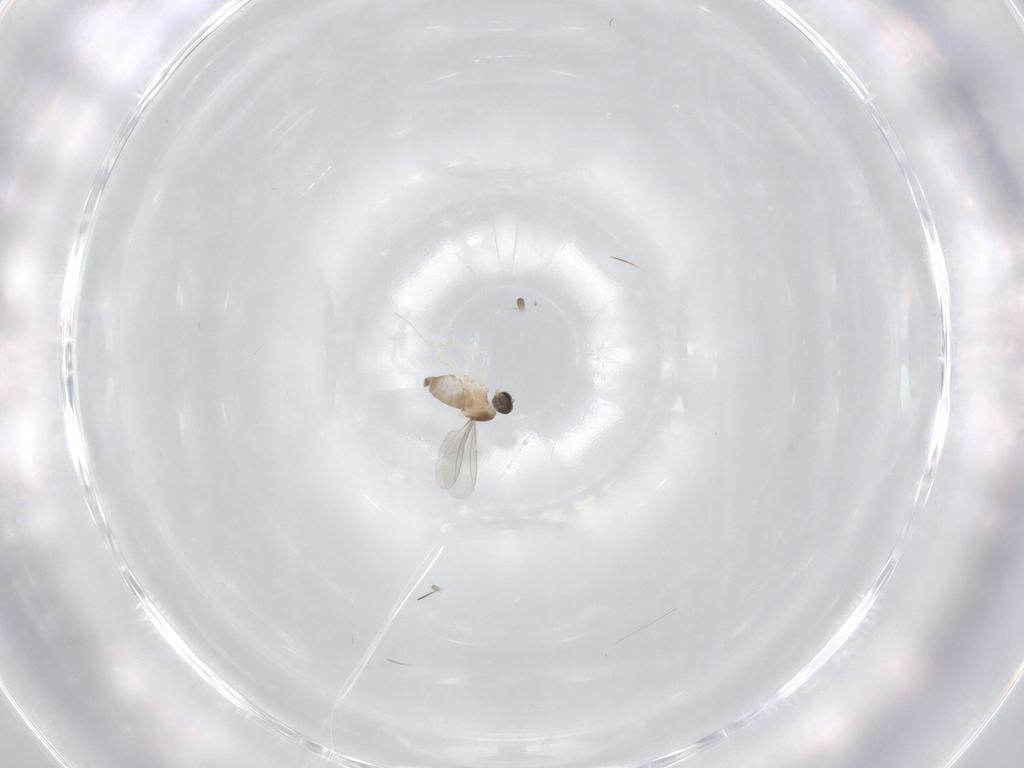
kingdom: Animalia
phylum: Arthropoda
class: Insecta
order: Diptera
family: Cecidomyiidae
